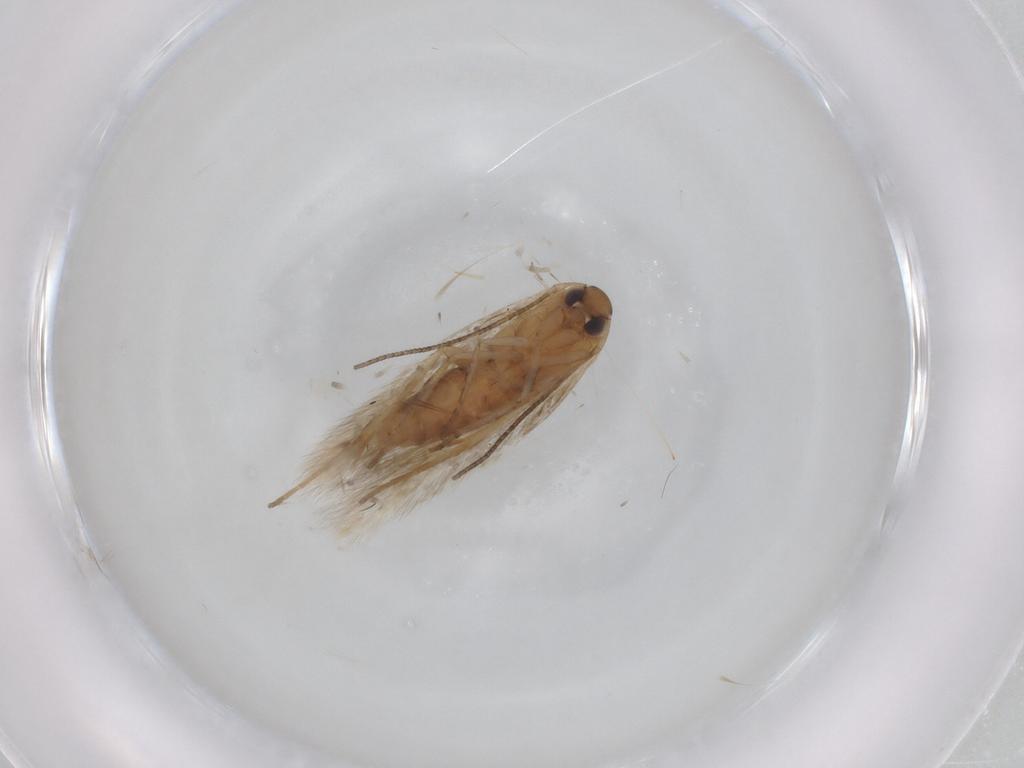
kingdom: Animalia
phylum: Arthropoda
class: Insecta
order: Lepidoptera
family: Cosmopterigidae
